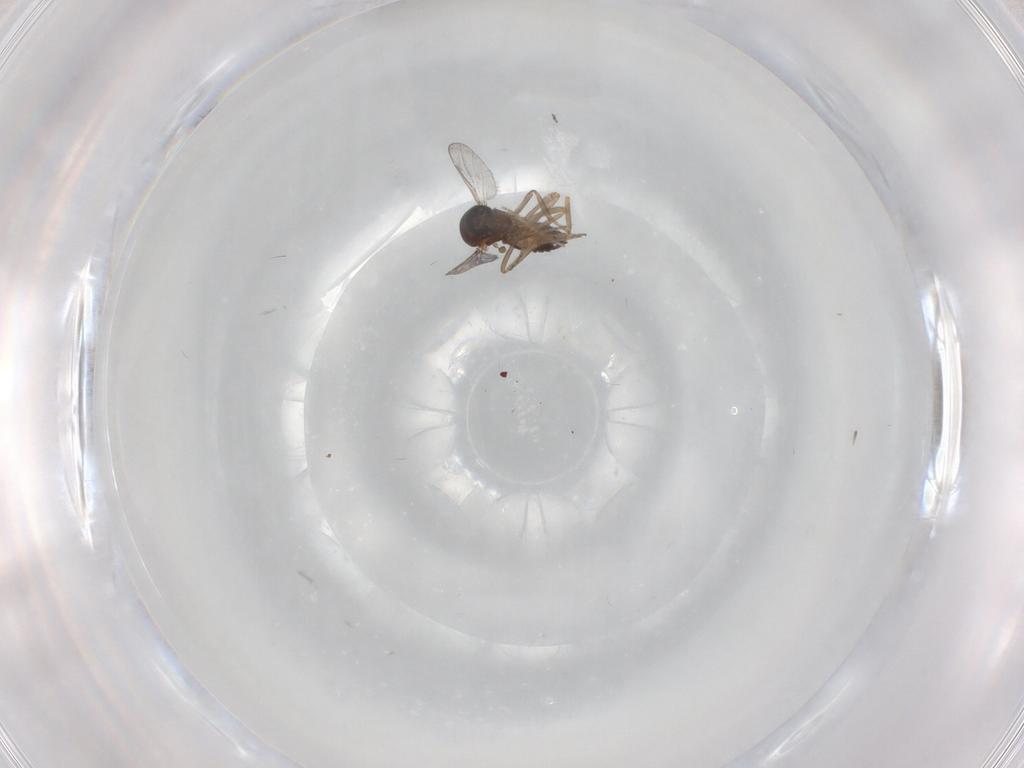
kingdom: Animalia
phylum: Arthropoda
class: Insecta
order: Diptera
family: Ceratopogonidae
